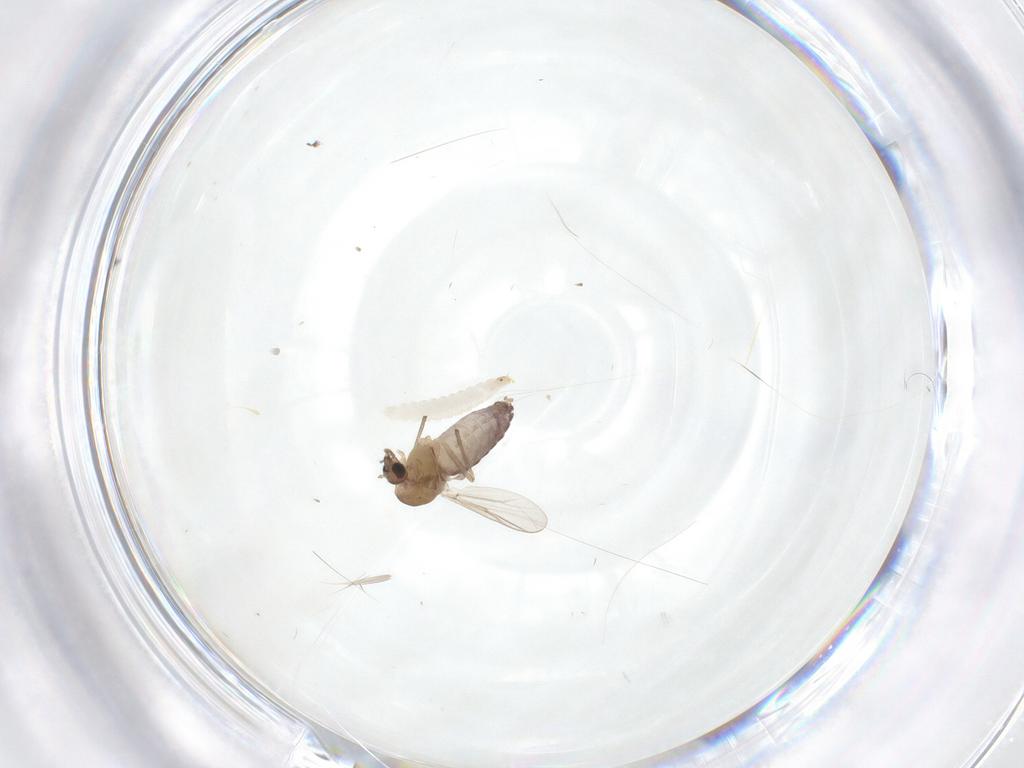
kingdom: Animalia
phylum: Arthropoda
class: Insecta
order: Diptera
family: Chironomidae
